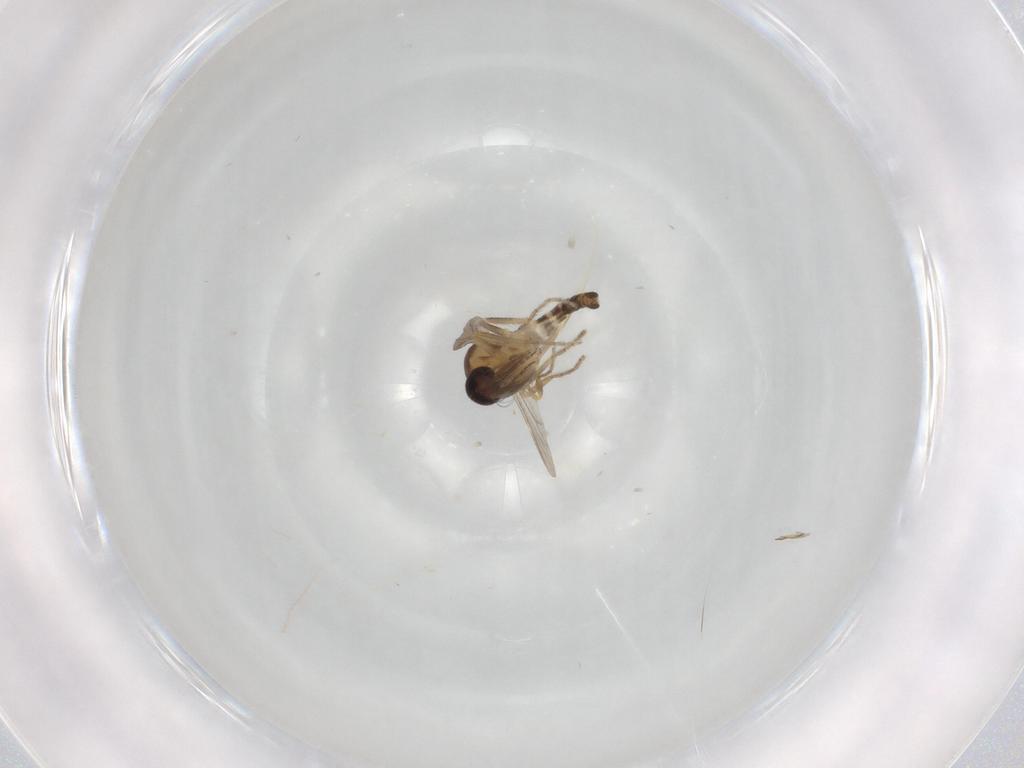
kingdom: Animalia
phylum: Arthropoda
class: Insecta
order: Diptera
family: Ceratopogonidae
